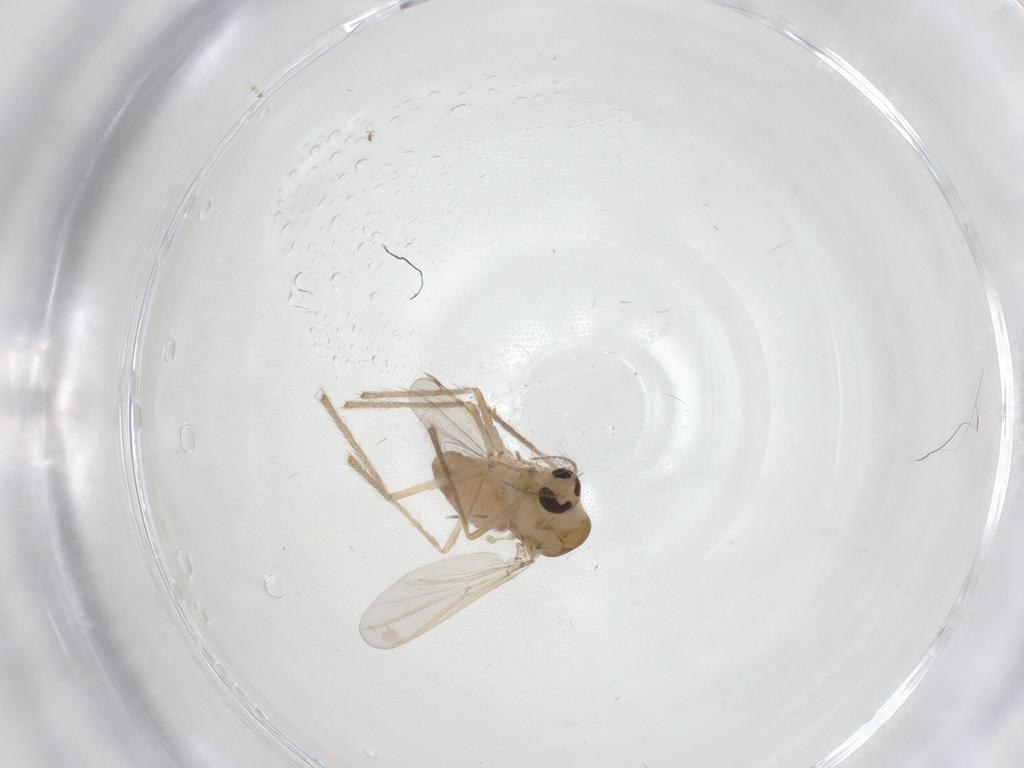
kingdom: Animalia
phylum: Arthropoda
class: Insecta
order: Diptera
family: Chironomidae
